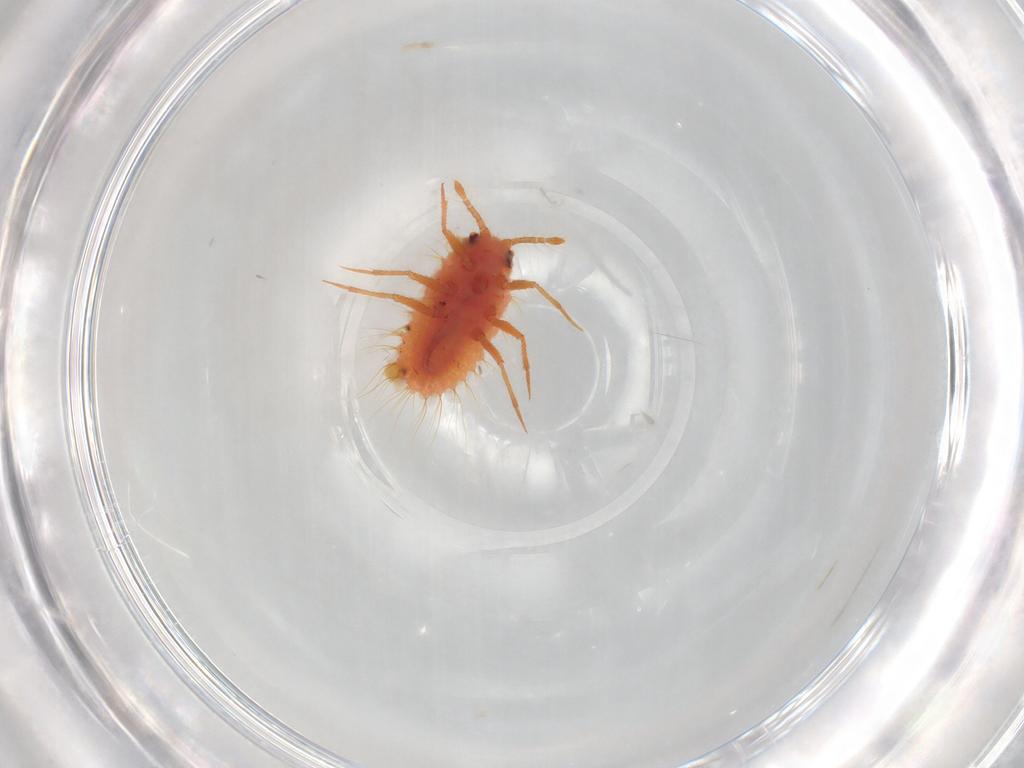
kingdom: Animalia
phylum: Arthropoda
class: Insecta
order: Hemiptera
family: Coccoidea_incertae_sedis
